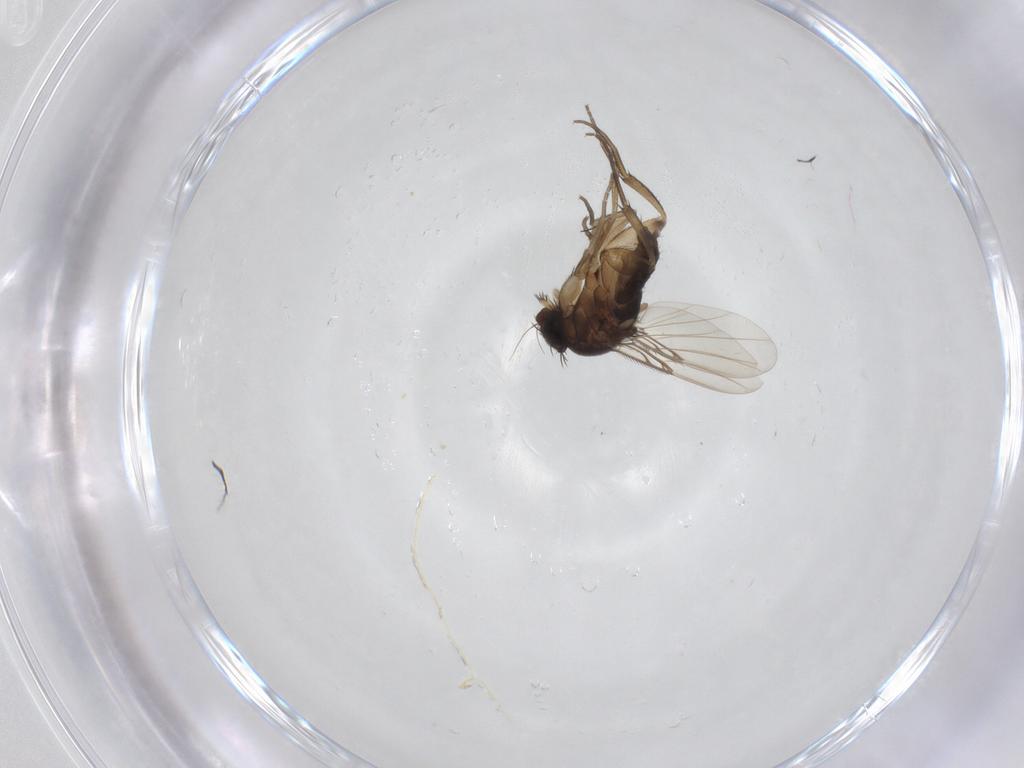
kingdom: Animalia
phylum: Arthropoda
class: Insecta
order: Diptera
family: Phoridae
